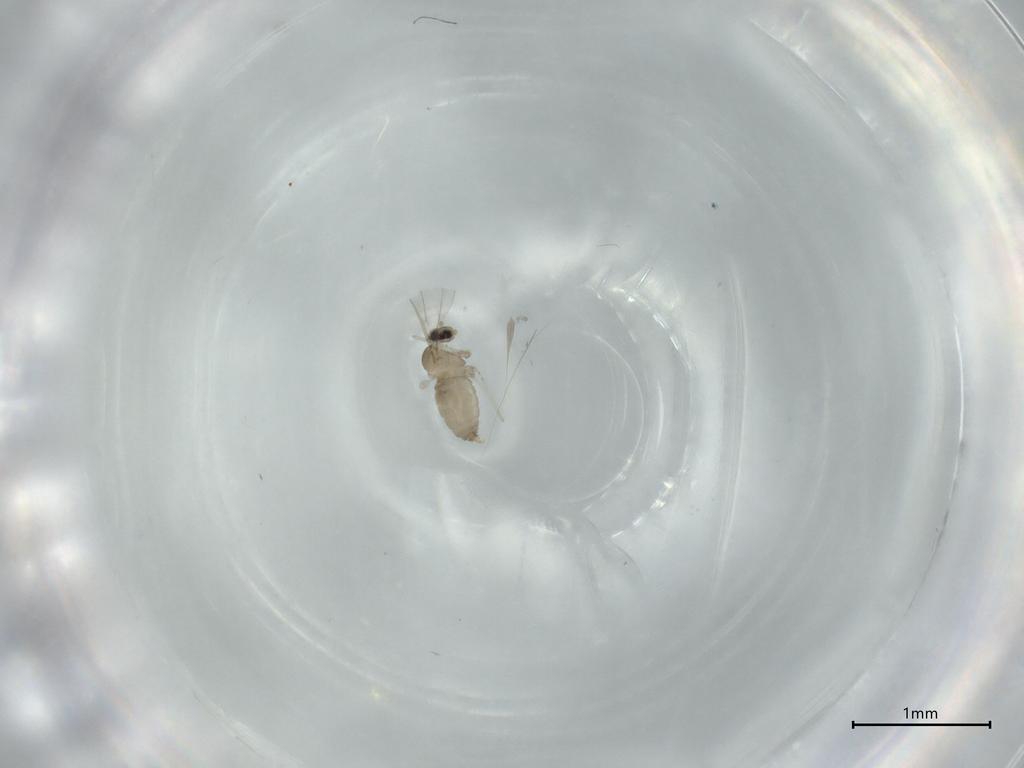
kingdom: Animalia
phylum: Arthropoda
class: Insecta
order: Diptera
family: Cecidomyiidae
